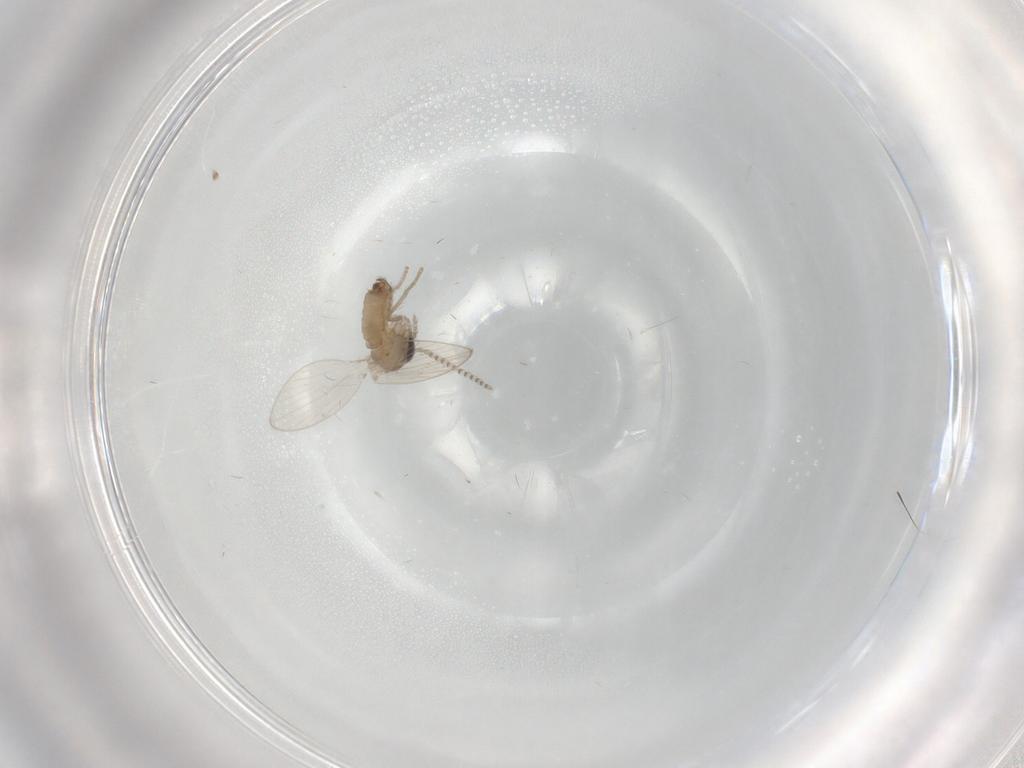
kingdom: Animalia
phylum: Arthropoda
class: Insecta
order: Diptera
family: Psychodidae
